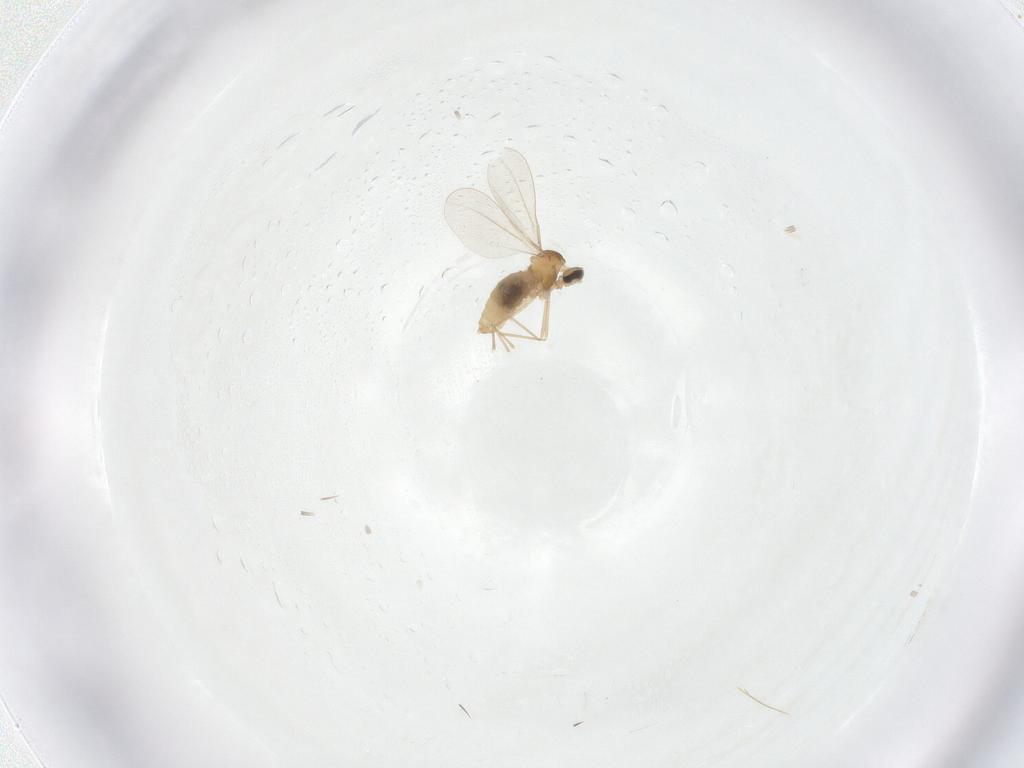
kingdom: Animalia
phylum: Arthropoda
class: Insecta
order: Diptera
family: Cecidomyiidae
